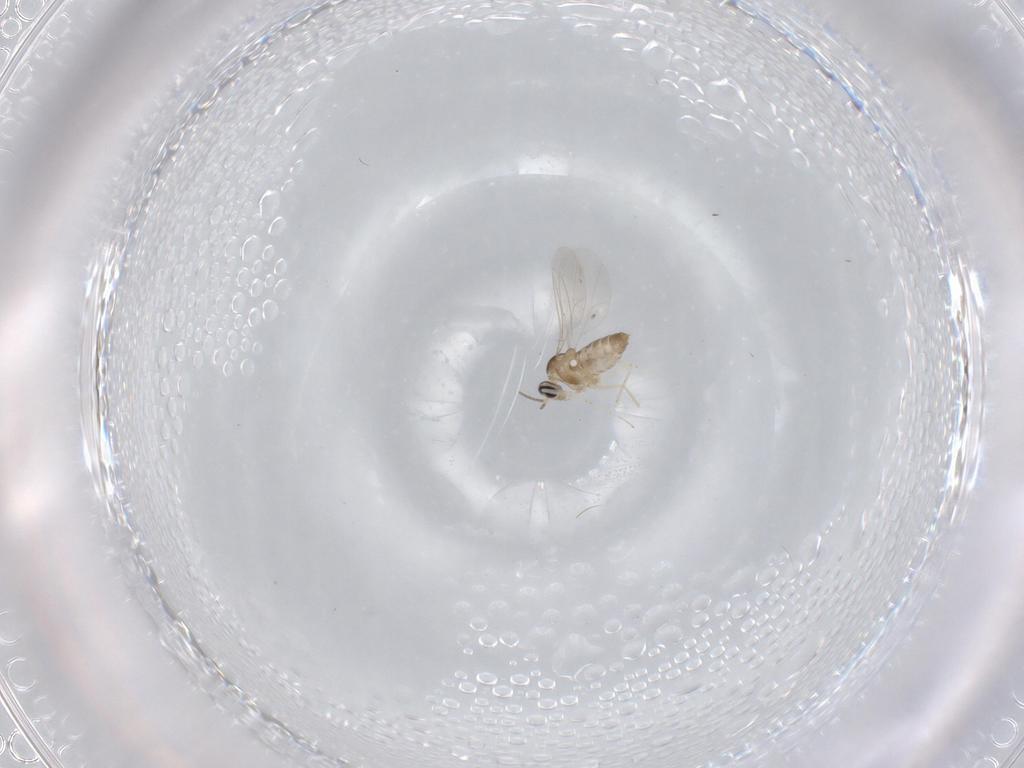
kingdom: Animalia
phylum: Arthropoda
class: Insecta
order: Diptera
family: Cecidomyiidae
